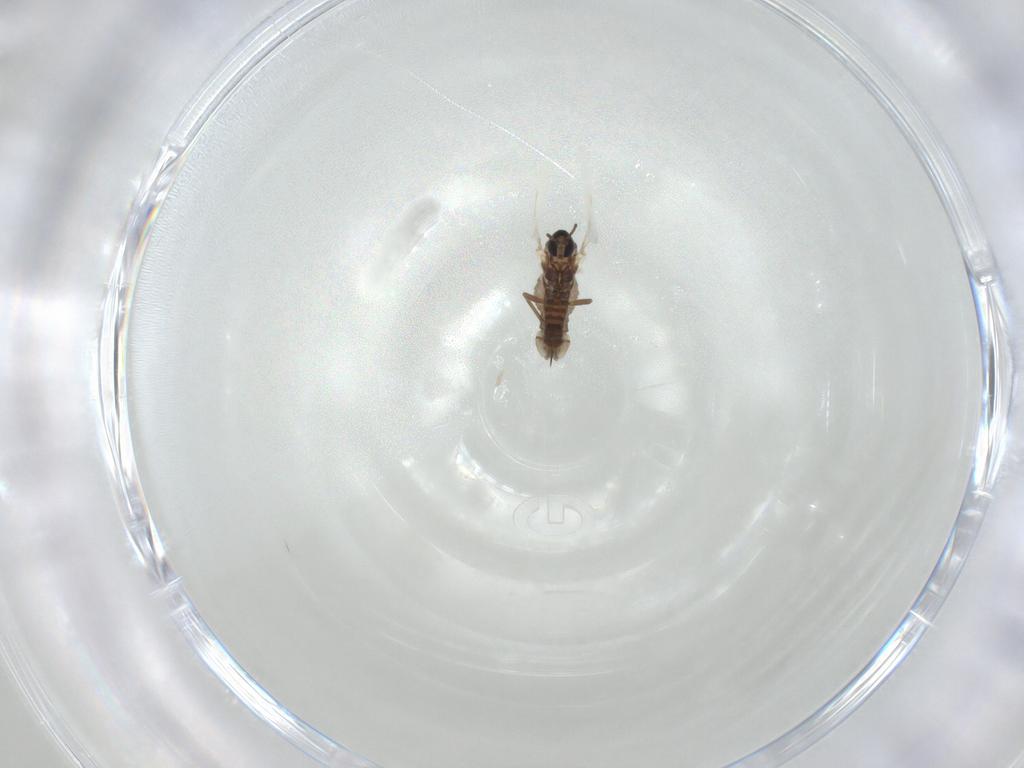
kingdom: Animalia
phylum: Arthropoda
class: Insecta
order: Diptera
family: Cecidomyiidae
